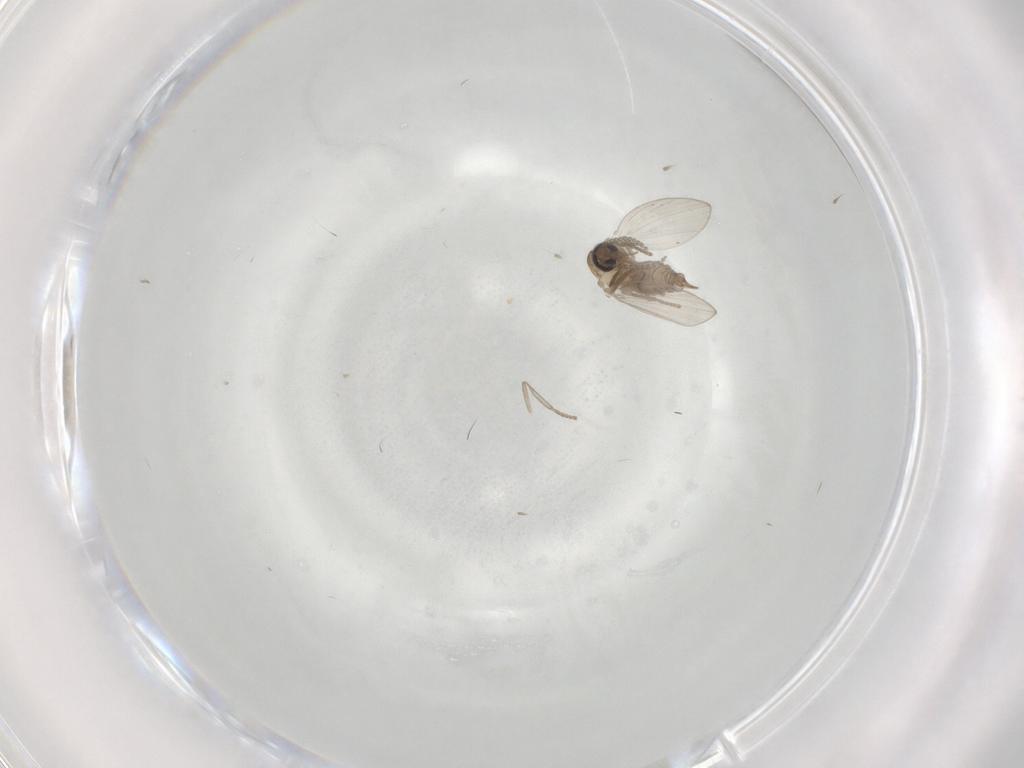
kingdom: Animalia
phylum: Arthropoda
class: Insecta
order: Diptera
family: Psychodidae
